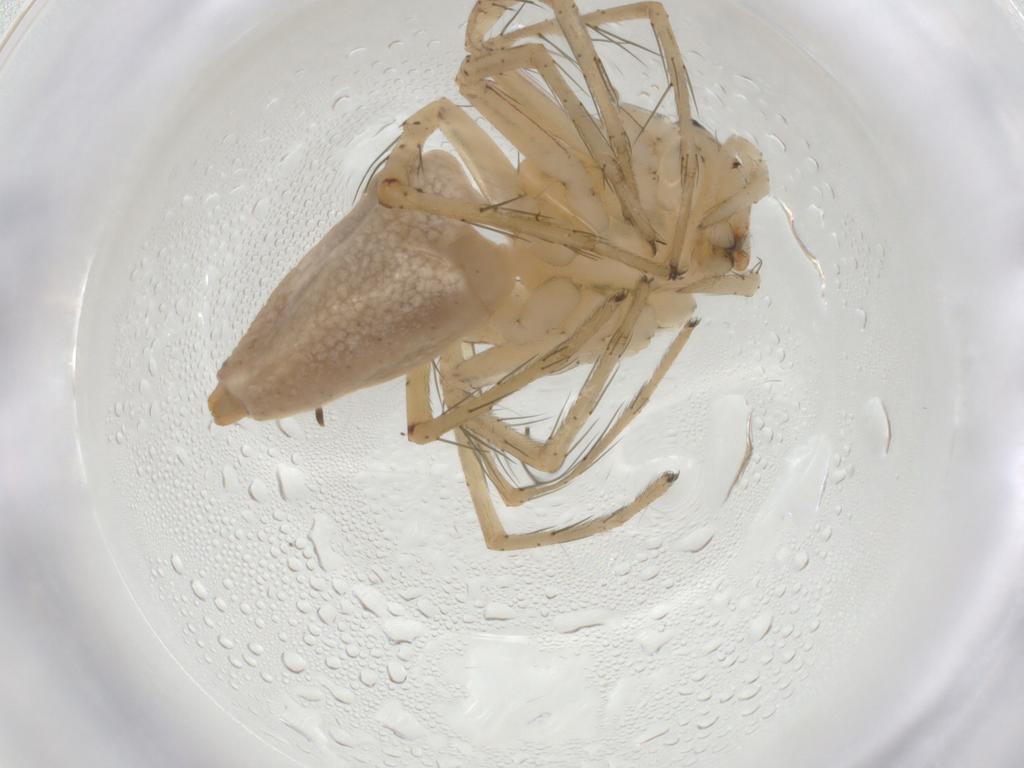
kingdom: Animalia
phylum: Arthropoda
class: Arachnida
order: Araneae
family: Oxyopidae
